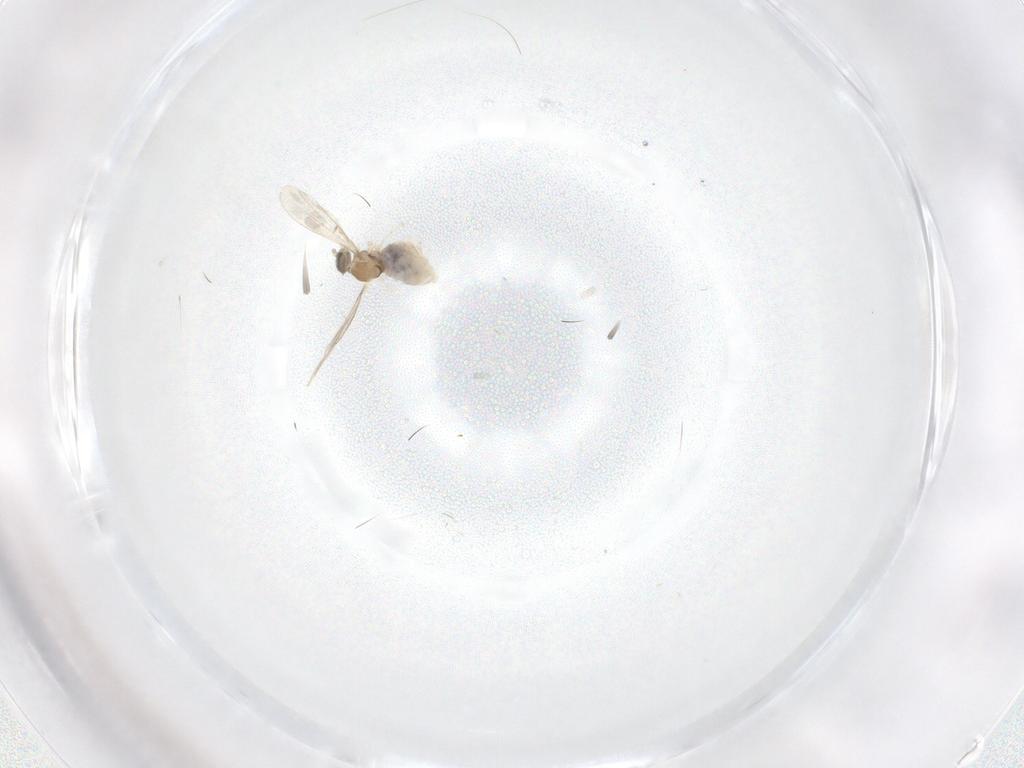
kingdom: Animalia
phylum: Arthropoda
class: Insecta
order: Diptera
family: Cecidomyiidae
